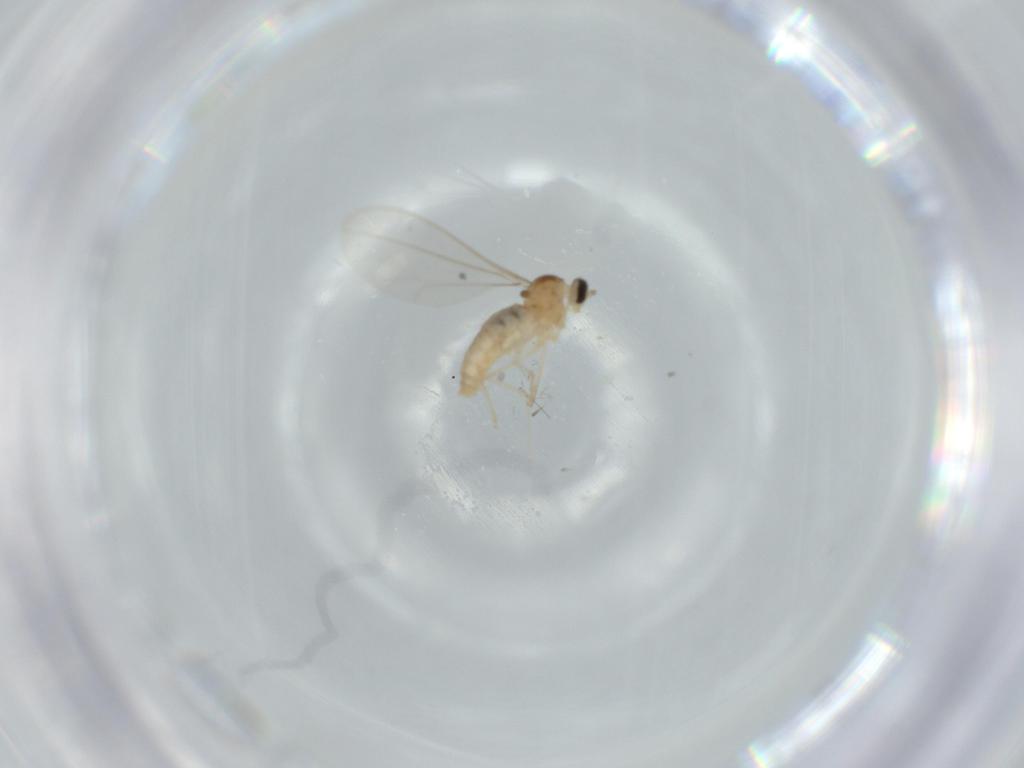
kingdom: Animalia
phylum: Arthropoda
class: Insecta
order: Diptera
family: Cecidomyiidae
